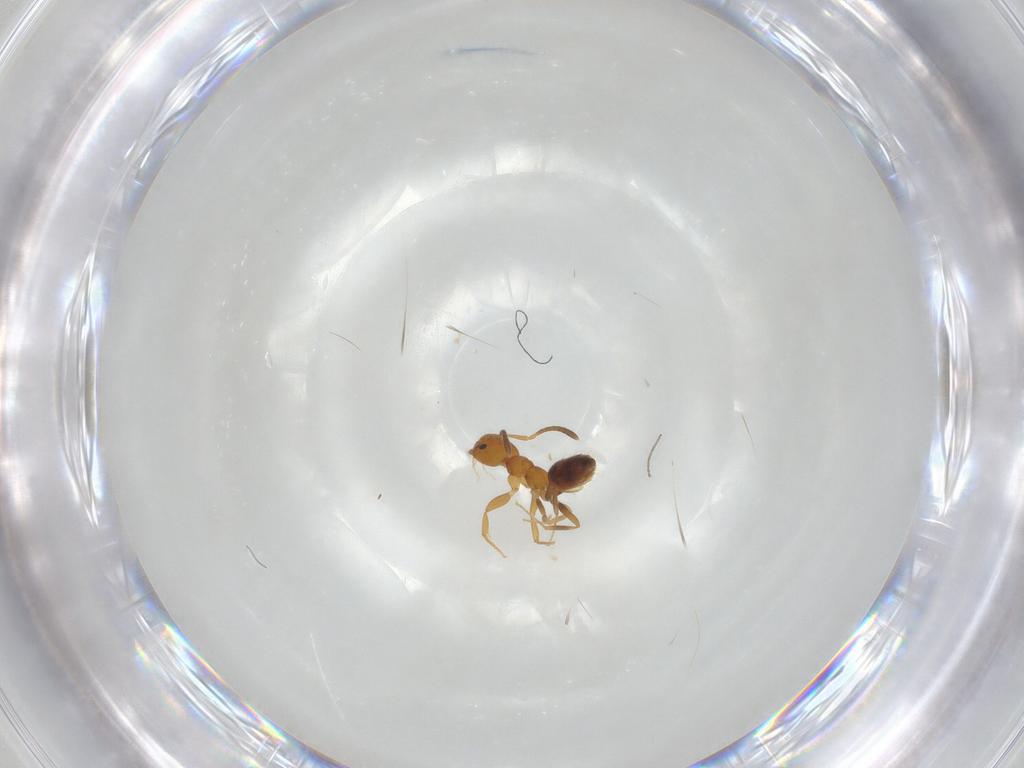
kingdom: Animalia
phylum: Arthropoda
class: Insecta
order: Hymenoptera
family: Formicidae
